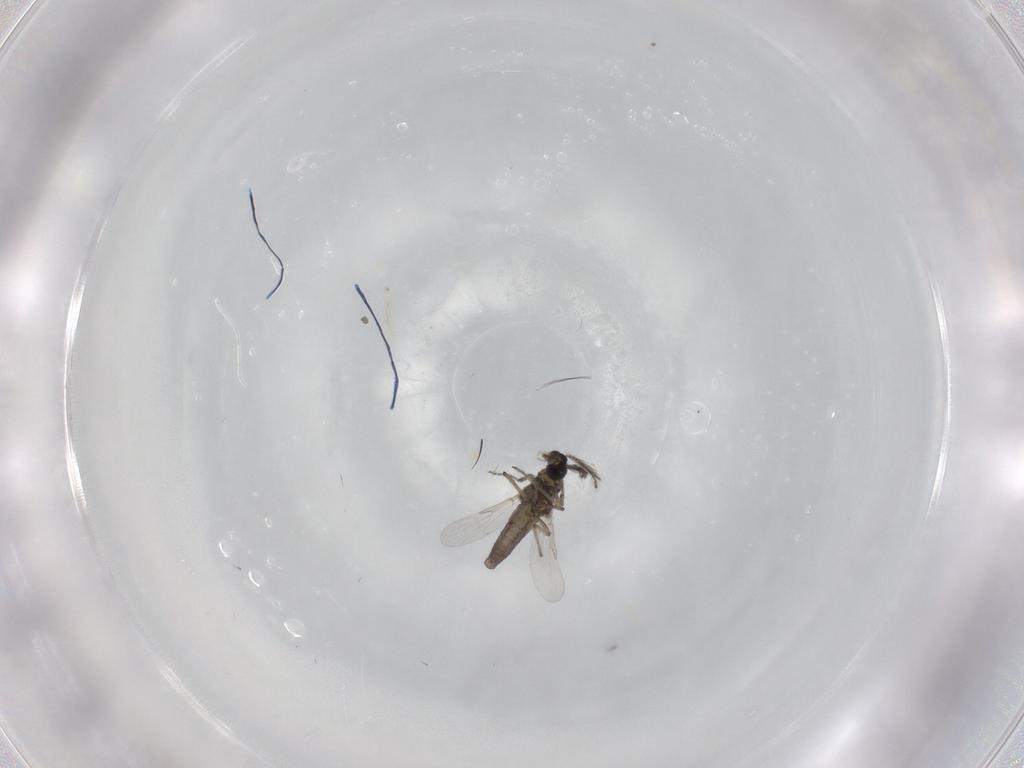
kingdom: Animalia
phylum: Arthropoda
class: Insecta
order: Diptera
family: Ceratopogonidae
